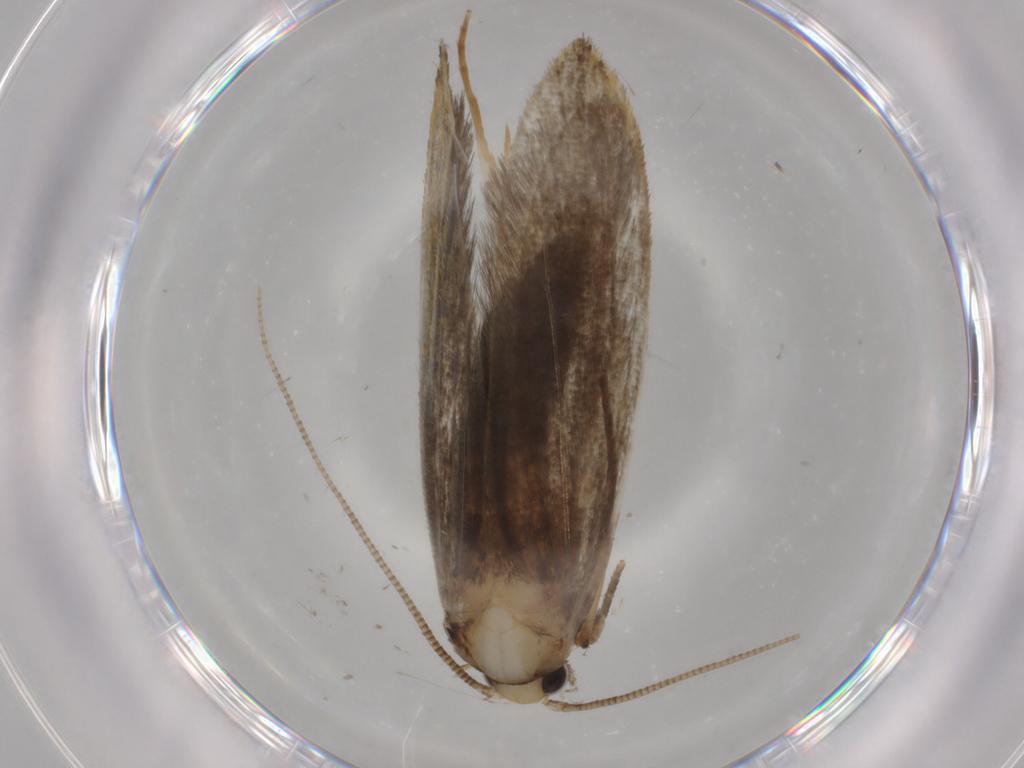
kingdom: Animalia
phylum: Arthropoda
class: Insecta
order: Lepidoptera
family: Tineidae
